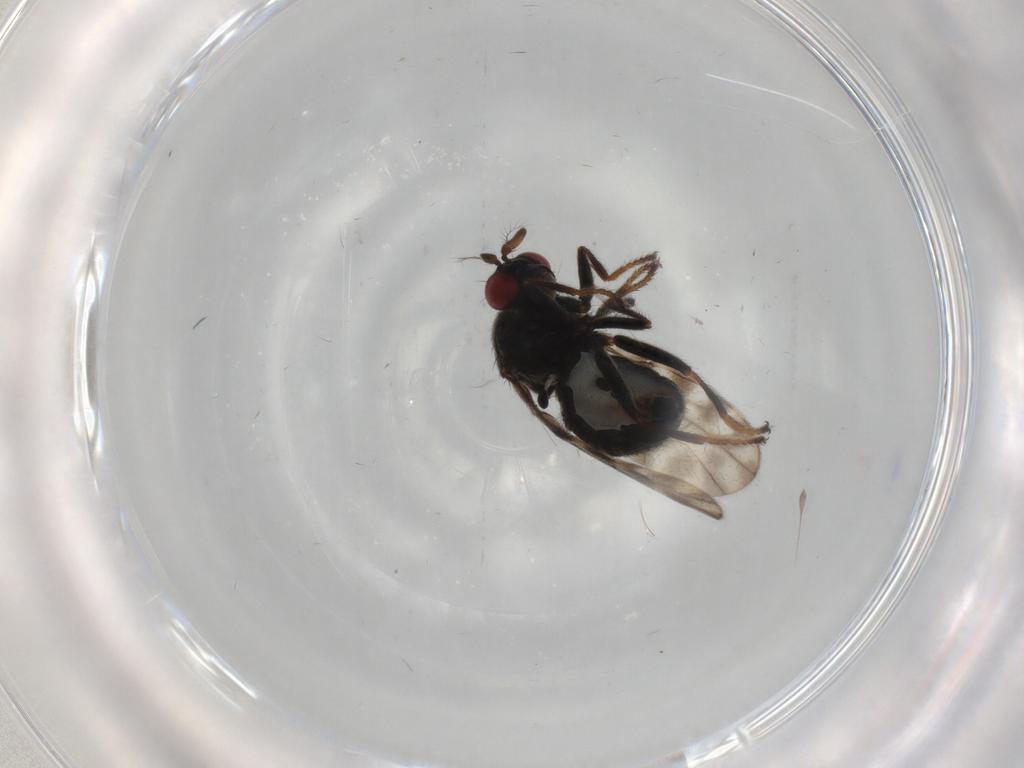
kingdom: Animalia
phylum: Arthropoda
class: Insecta
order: Diptera
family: Ephydridae
